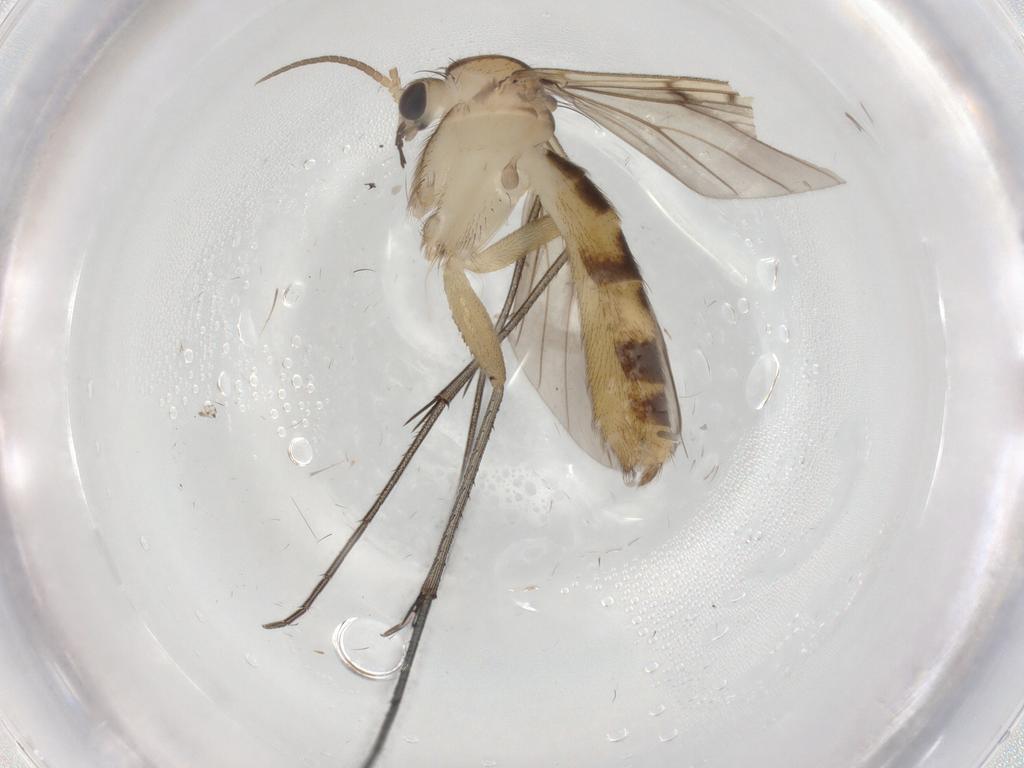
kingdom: Animalia
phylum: Arthropoda
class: Insecta
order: Diptera
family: Mycetophilidae
